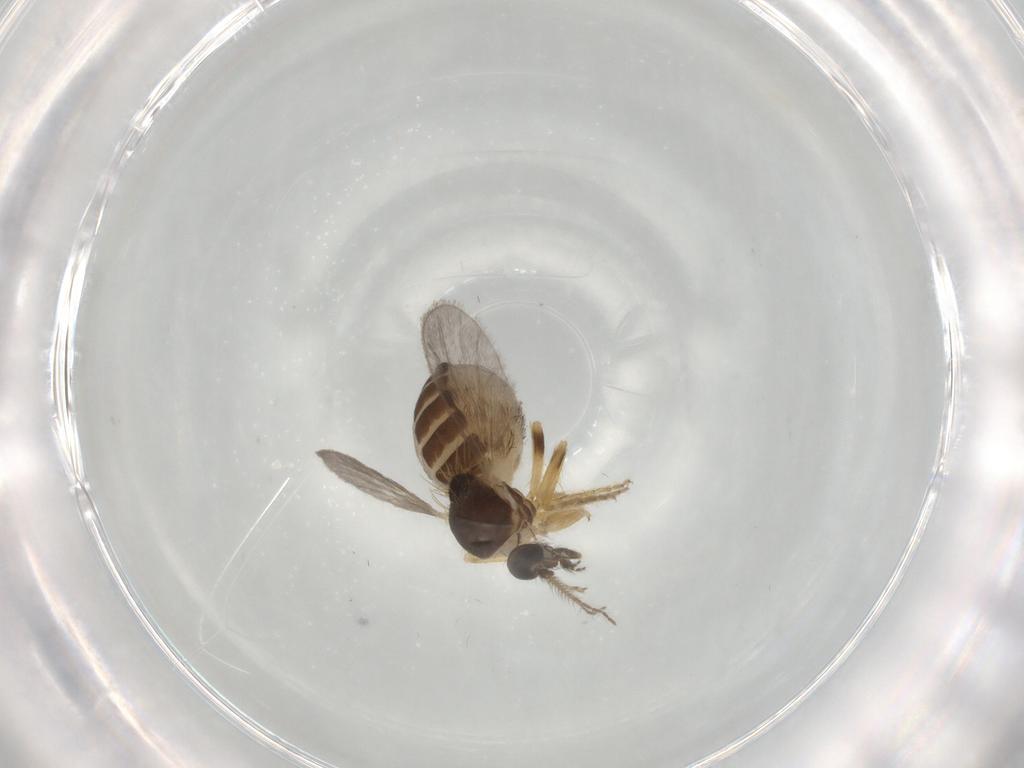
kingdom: Animalia
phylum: Arthropoda
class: Insecta
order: Diptera
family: Ceratopogonidae
